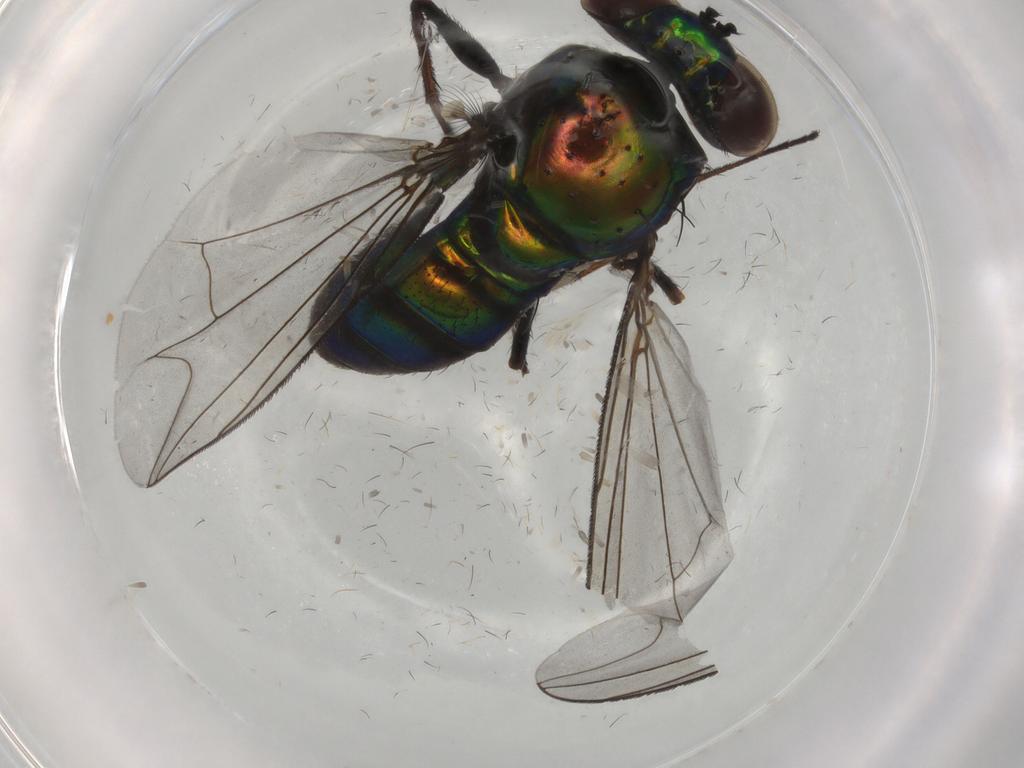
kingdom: Animalia
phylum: Arthropoda
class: Insecta
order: Diptera
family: Dolichopodidae
